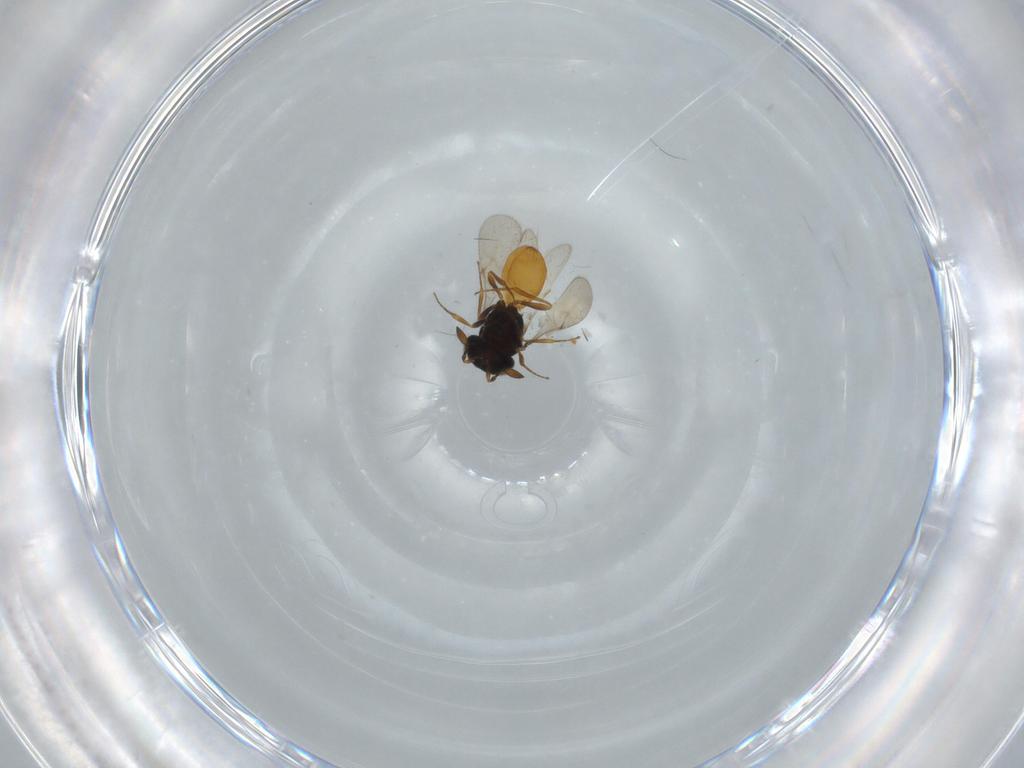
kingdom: Animalia
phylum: Arthropoda
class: Insecta
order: Hymenoptera
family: Scelionidae
